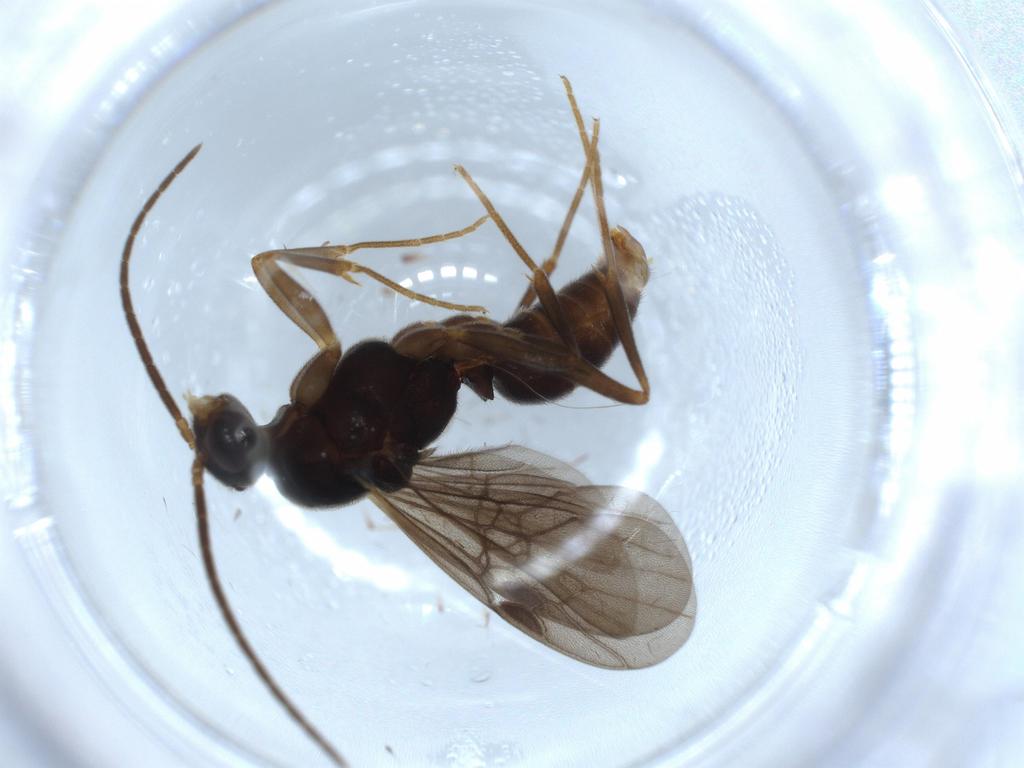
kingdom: Animalia
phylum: Arthropoda
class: Insecta
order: Hymenoptera
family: Formicidae
